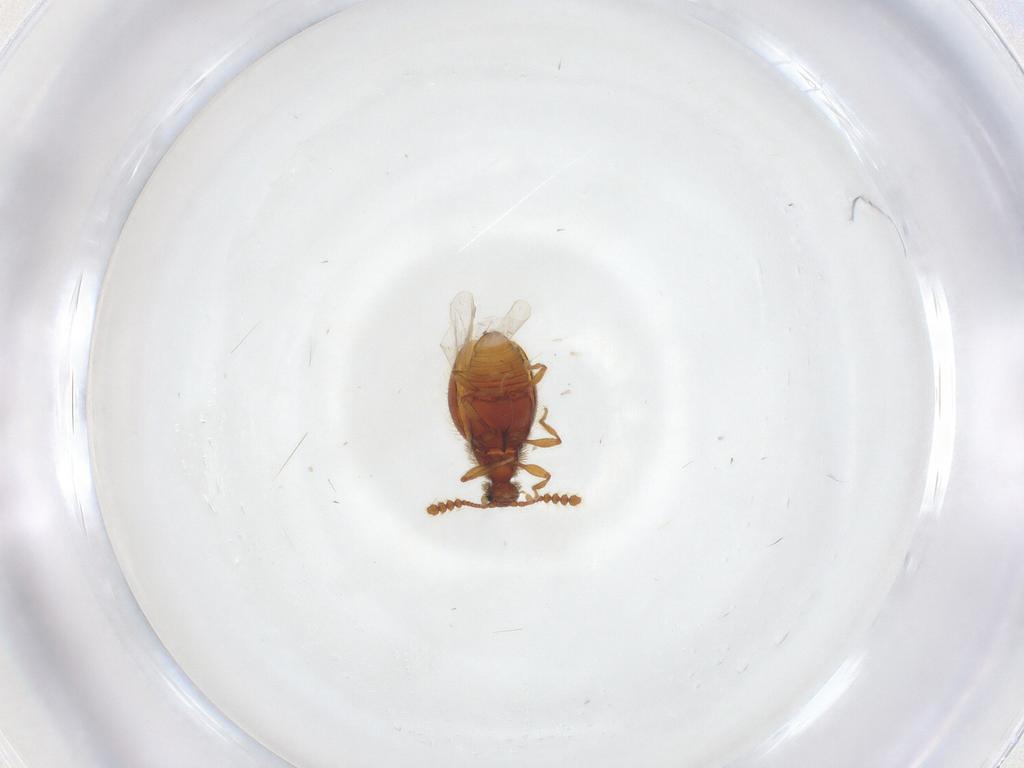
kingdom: Animalia
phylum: Arthropoda
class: Insecta
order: Coleoptera
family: Staphylinidae
